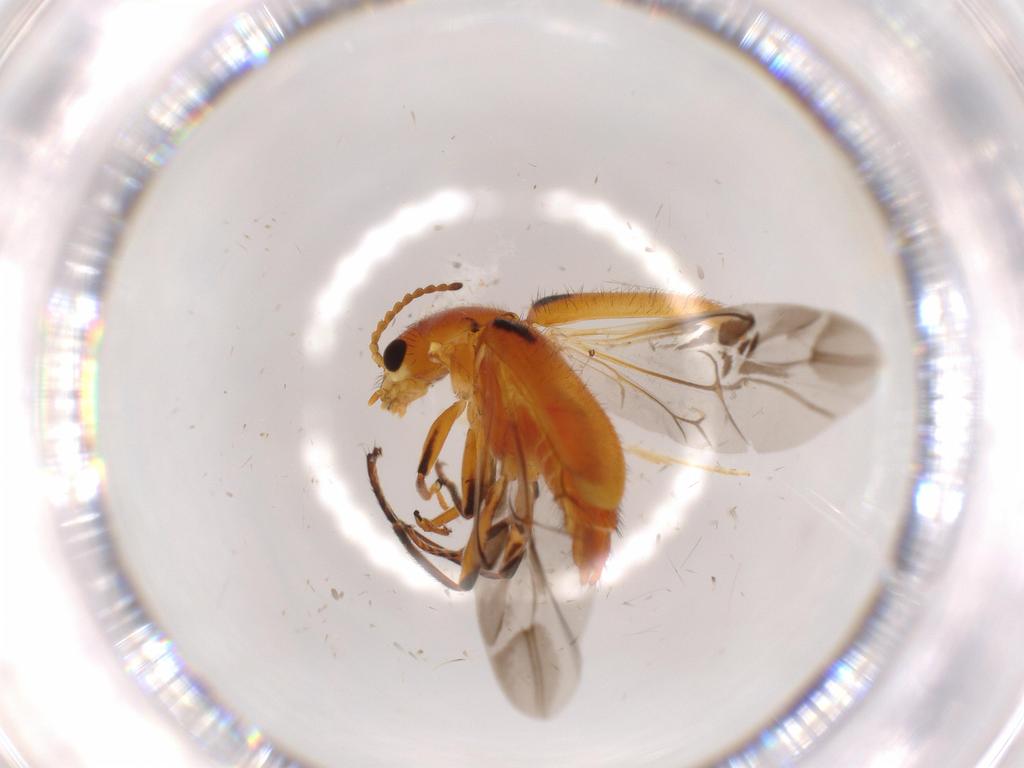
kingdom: Animalia
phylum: Arthropoda
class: Insecta
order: Coleoptera
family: Melyridae
